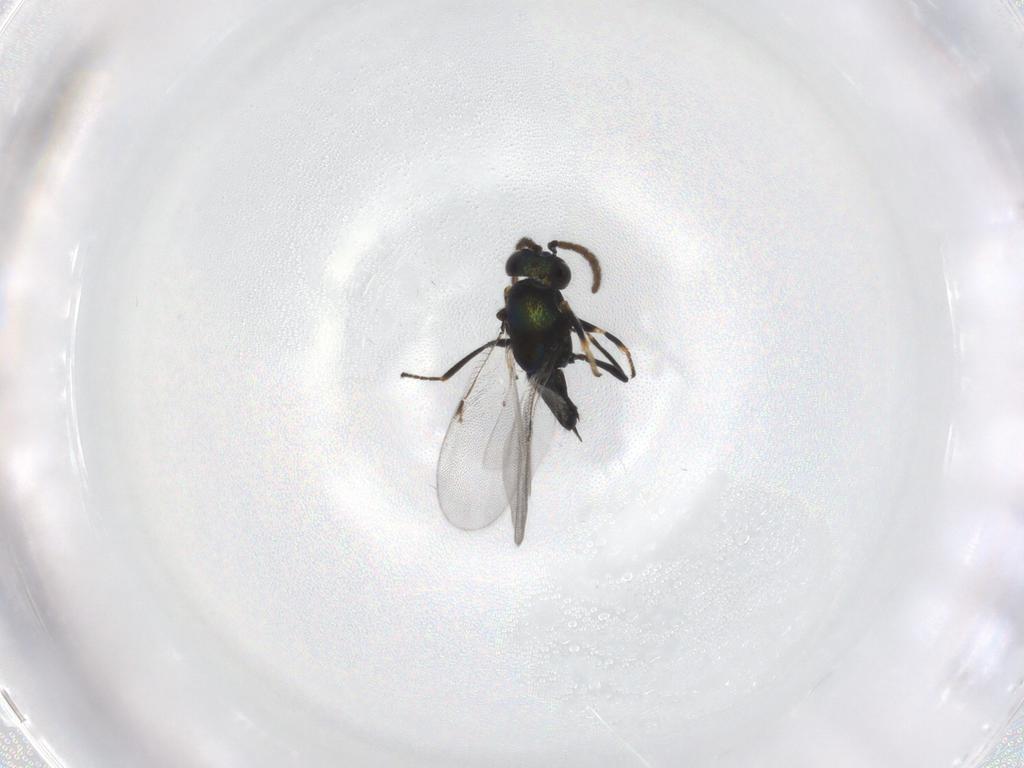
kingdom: Animalia
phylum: Arthropoda
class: Insecta
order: Hymenoptera
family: Encyrtidae
